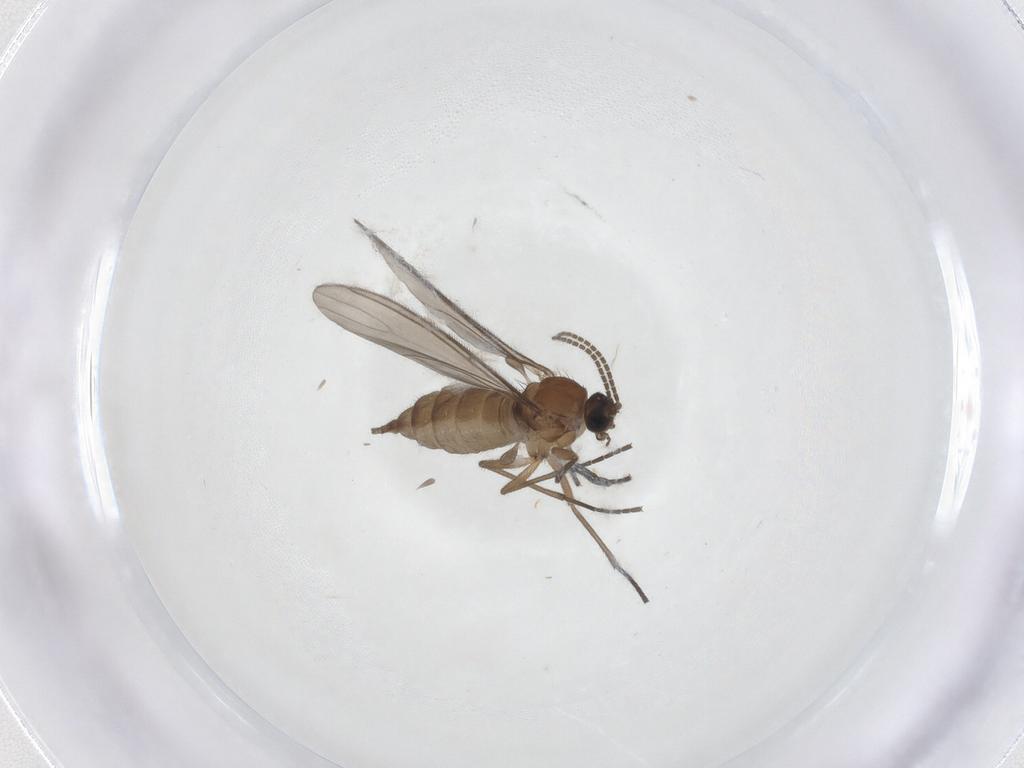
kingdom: Animalia
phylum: Arthropoda
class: Insecta
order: Diptera
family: Sciaridae
